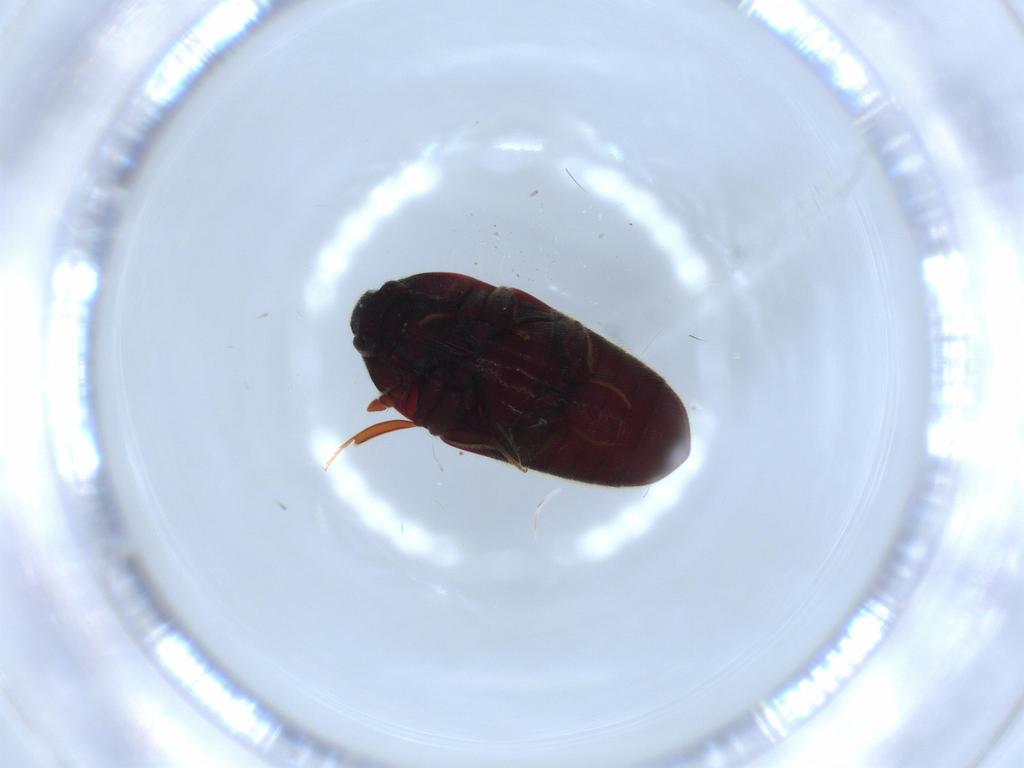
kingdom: Animalia
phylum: Arthropoda
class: Insecta
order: Coleoptera
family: Throscidae
